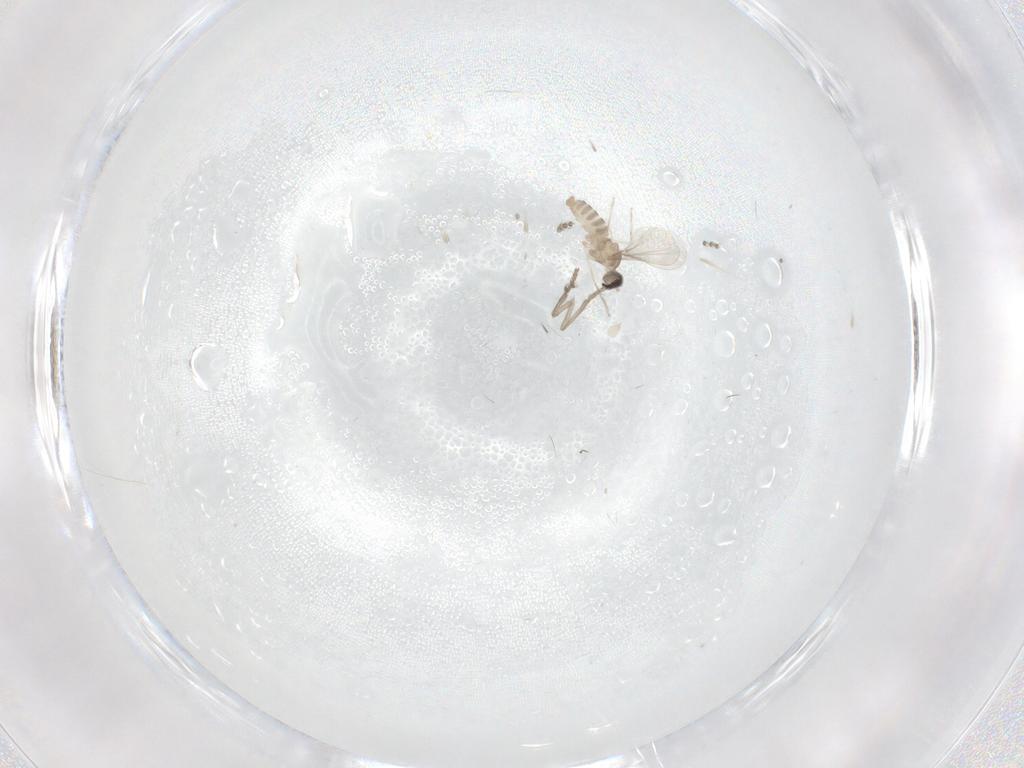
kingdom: Animalia
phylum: Arthropoda
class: Insecta
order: Diptera
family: Cecidomyiidae
